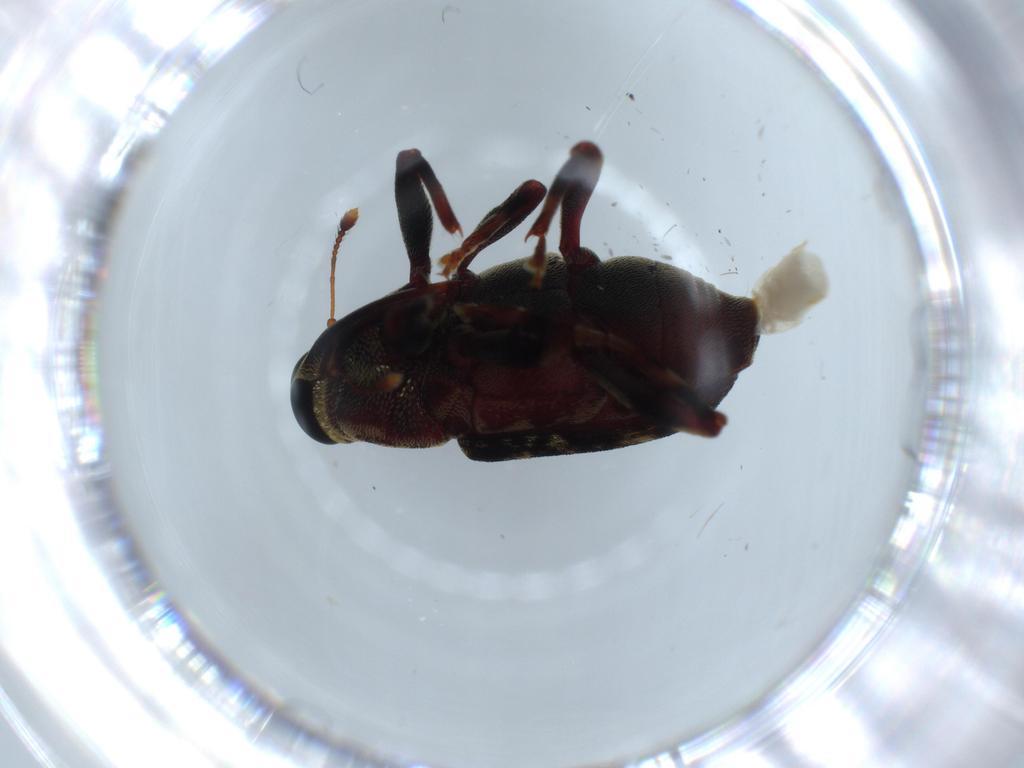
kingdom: Animalia
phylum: Arthropoda
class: Insecta
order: Coleoptera
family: Curculionidae
